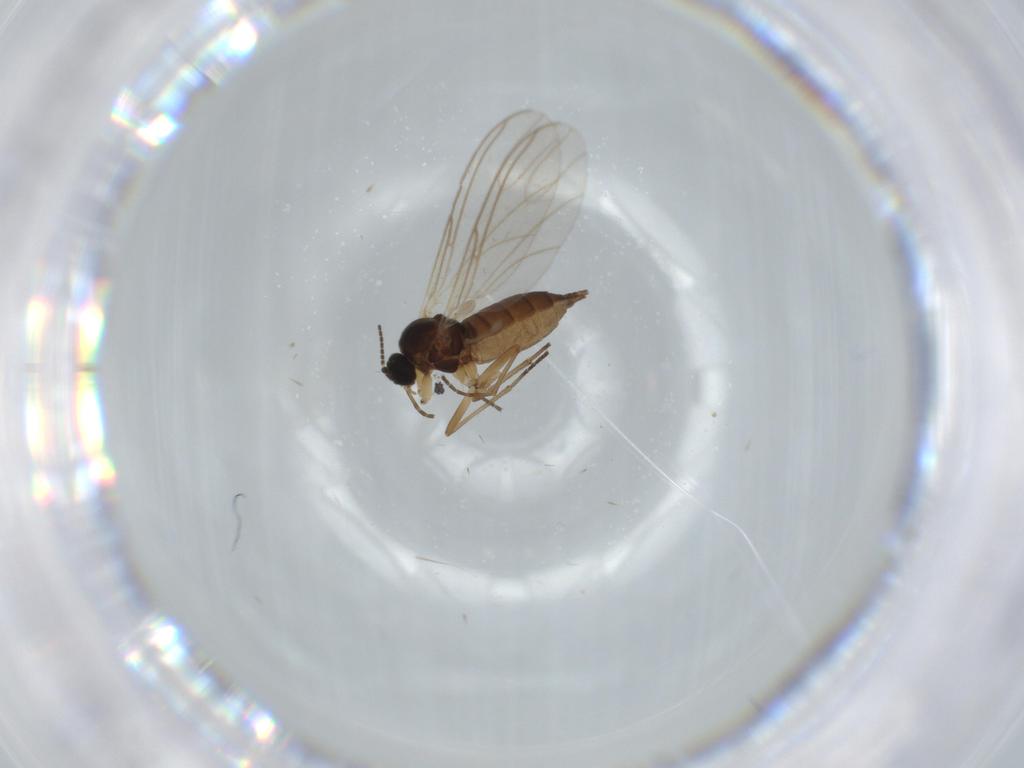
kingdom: Animalia
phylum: Arthropoda
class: Insecta
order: Diptera
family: Muscidae
